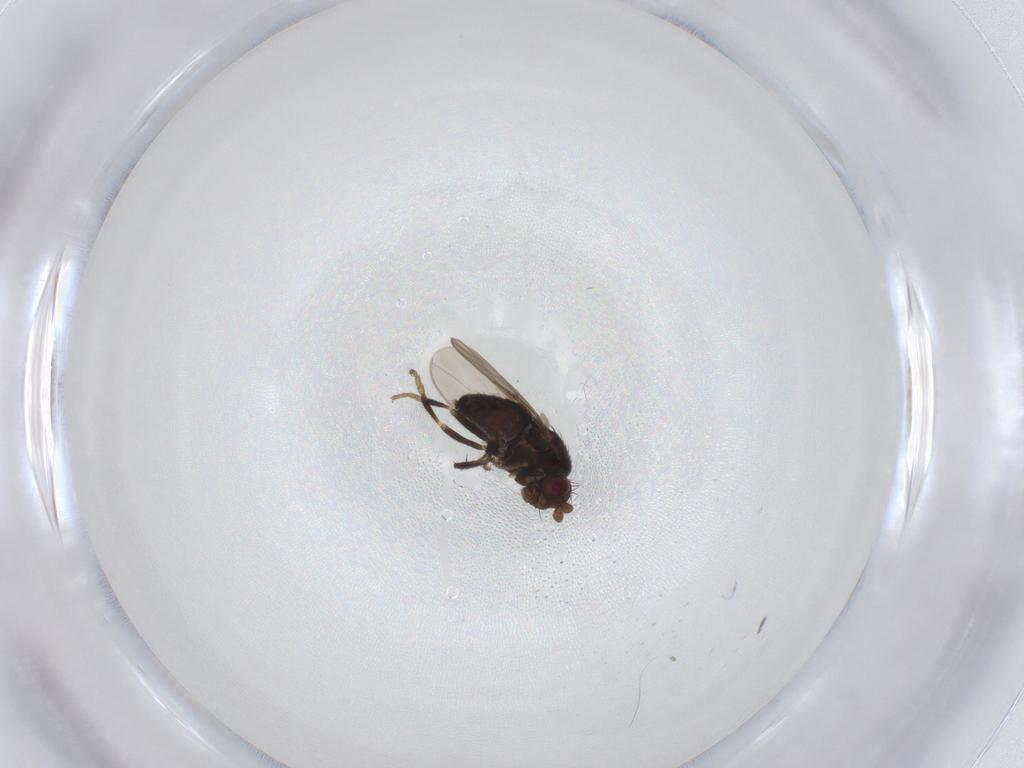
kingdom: Animalia
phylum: Arthropoda
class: Insecta
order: Diptera
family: Sphaeroceridae
